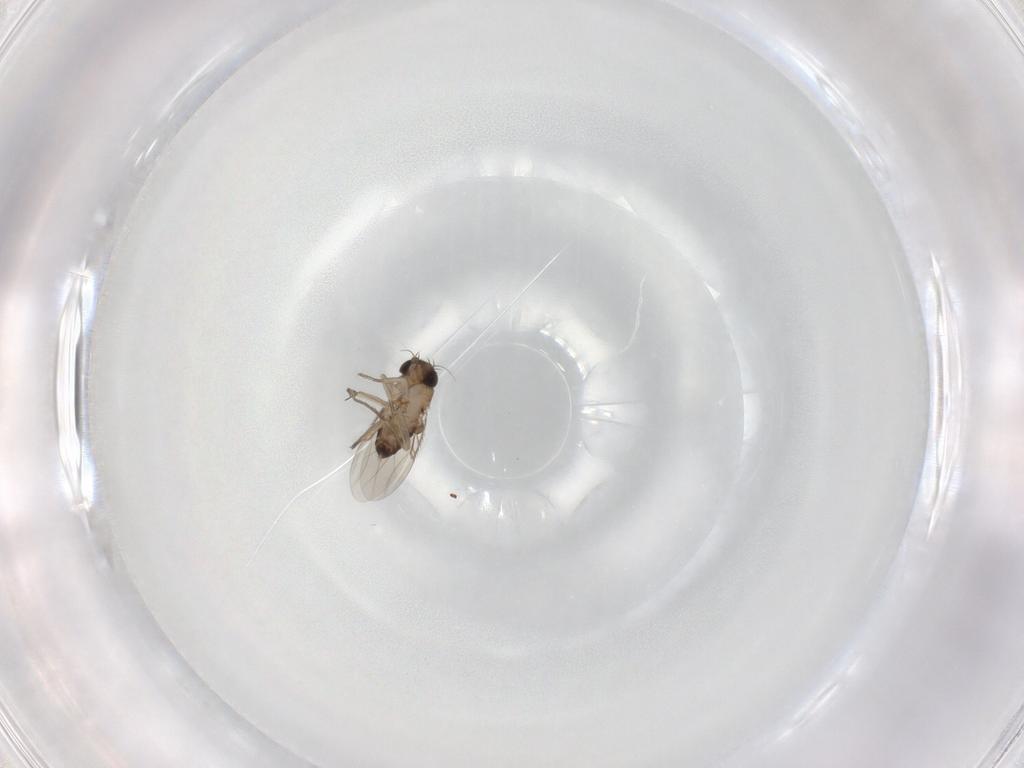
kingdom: Animalia
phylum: Arthropoda
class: Insecta
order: Diptera
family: Phoridae
